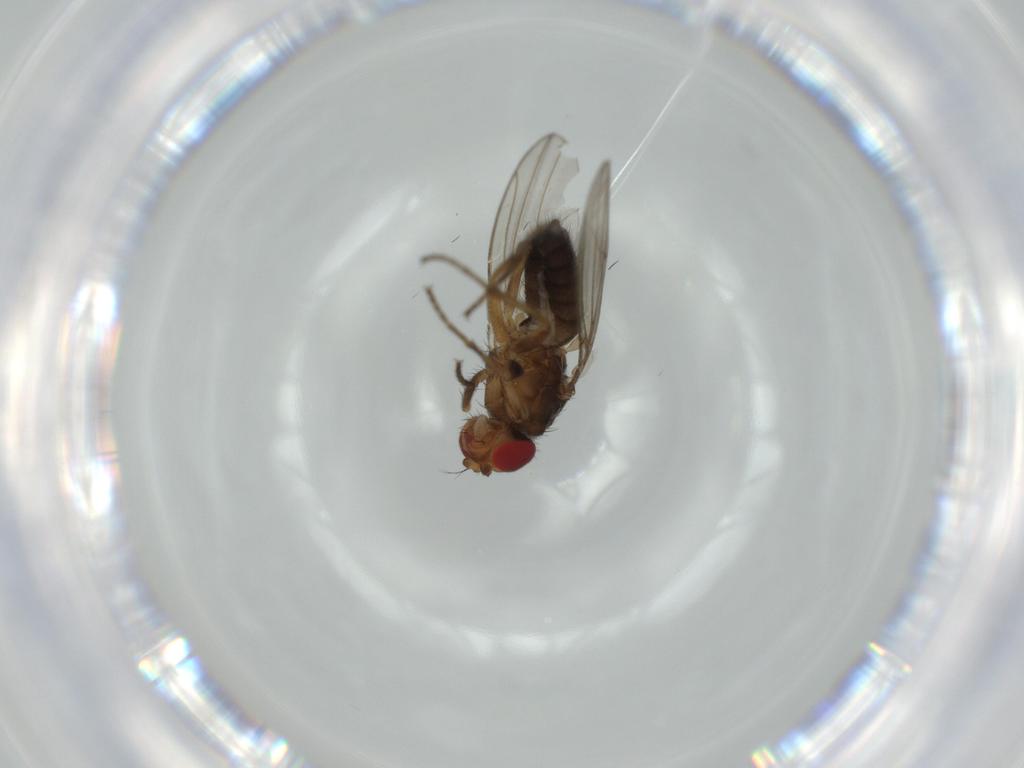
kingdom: Animalia
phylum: Arthropoda
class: Insecta
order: Diptera
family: Drosophilidae
